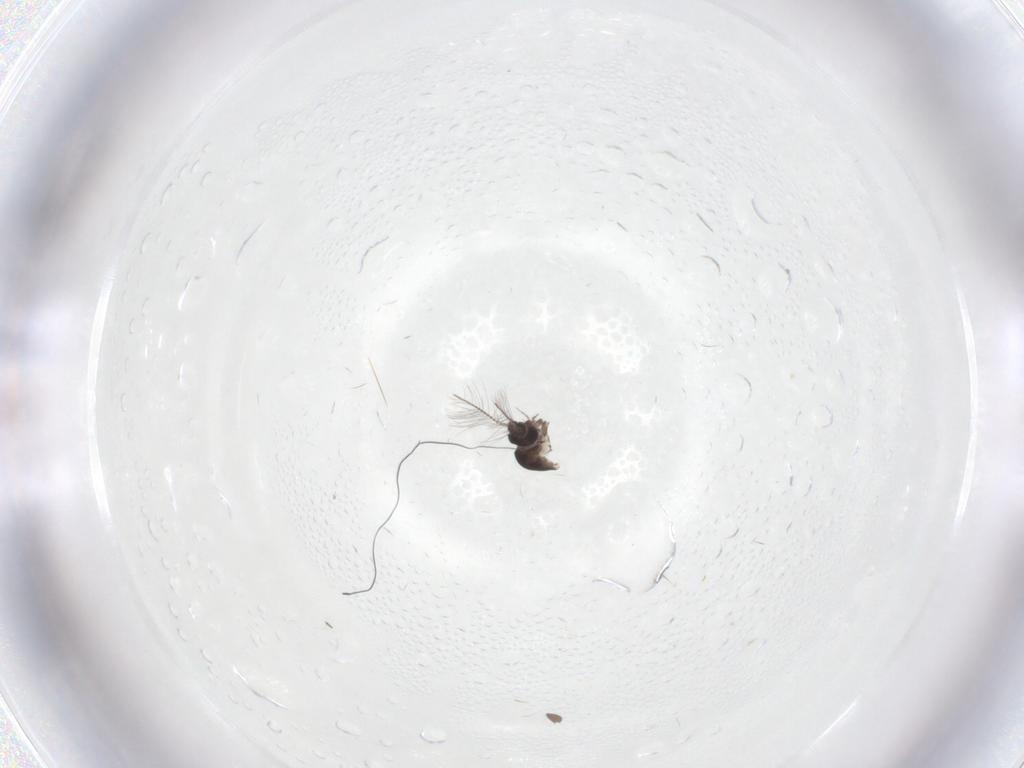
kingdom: Animalia
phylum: Arthropoda
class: Insecta
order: Diptera
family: Chironomidae
